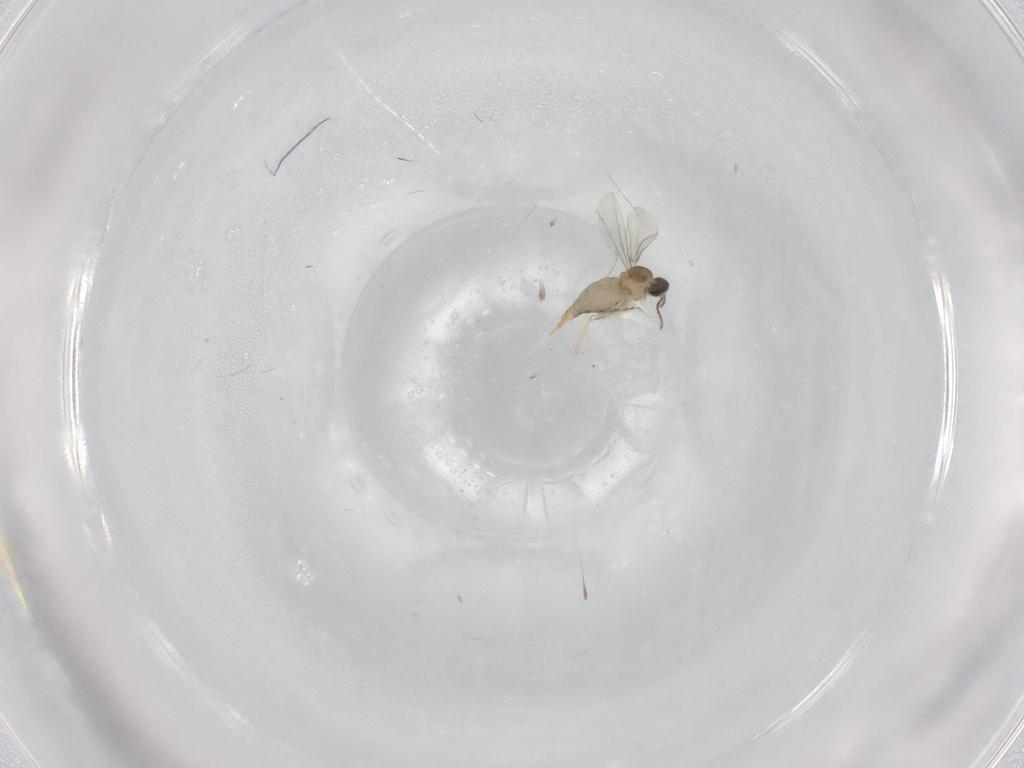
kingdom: Animalia
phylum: Arthropoda
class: Insecta
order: Diptera
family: Cecidomyiidae
